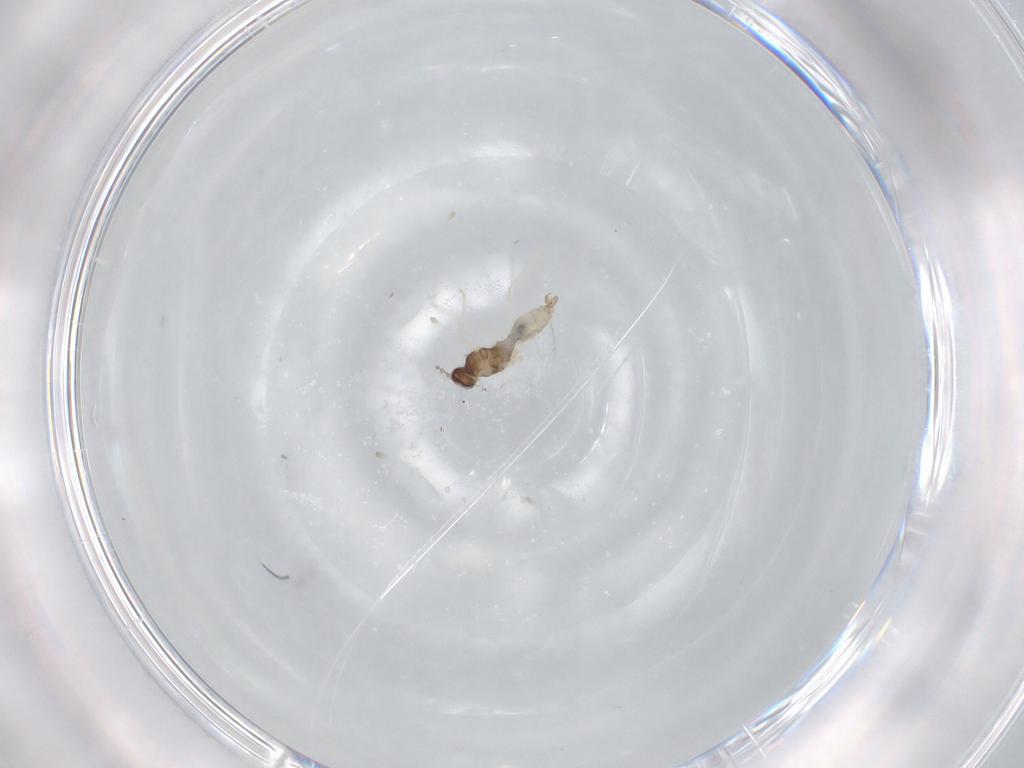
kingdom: Animalia
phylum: Arthropoda
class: Insecta
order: Diptera
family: Cecidomyiidae
